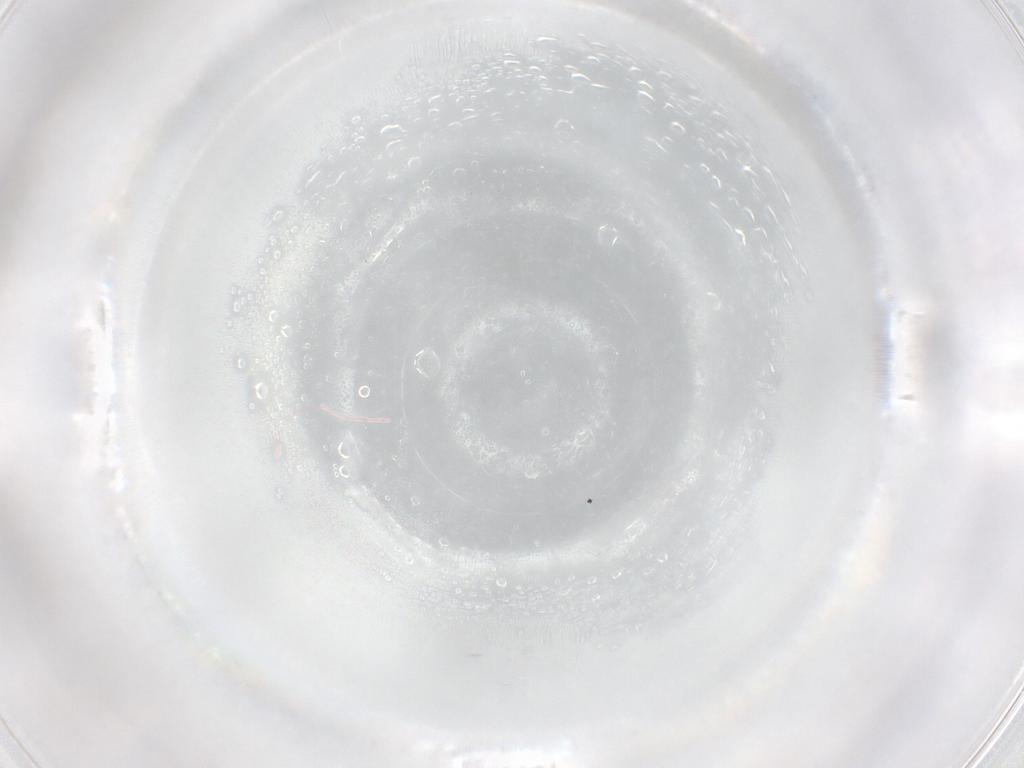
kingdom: Animalia
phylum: Arthropoda
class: Arachnida
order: Trombidiformes
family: Anystidae
